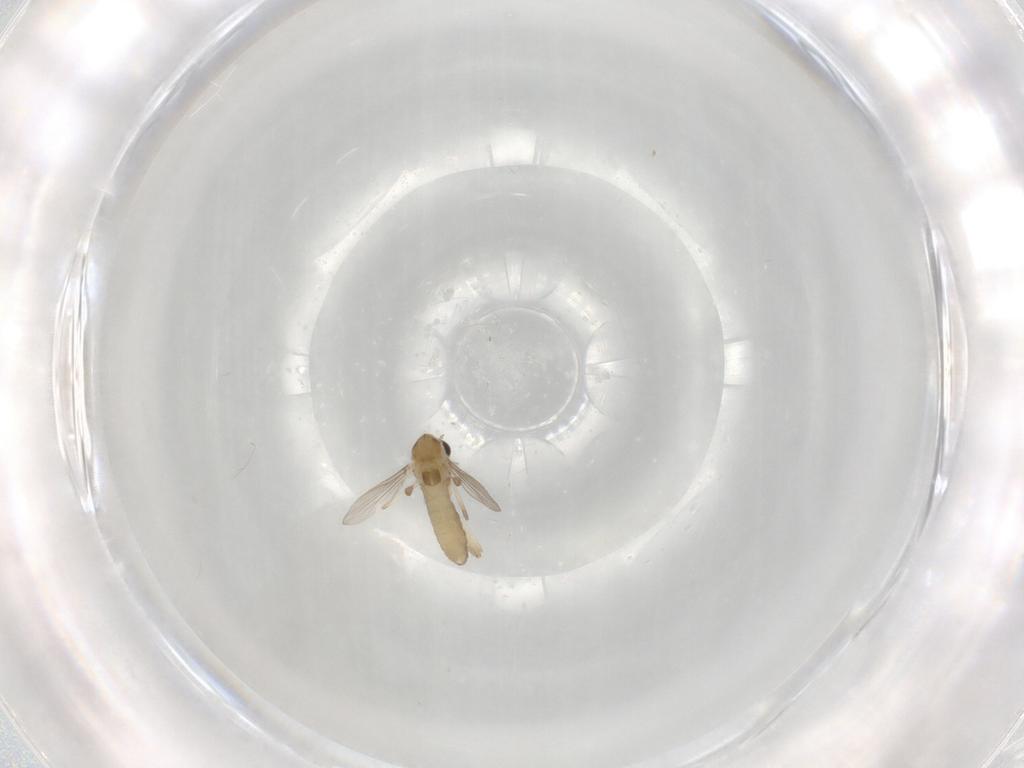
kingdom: Animalia
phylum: Arthropoda
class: Insecta
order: Diptera
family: Chironomidae
